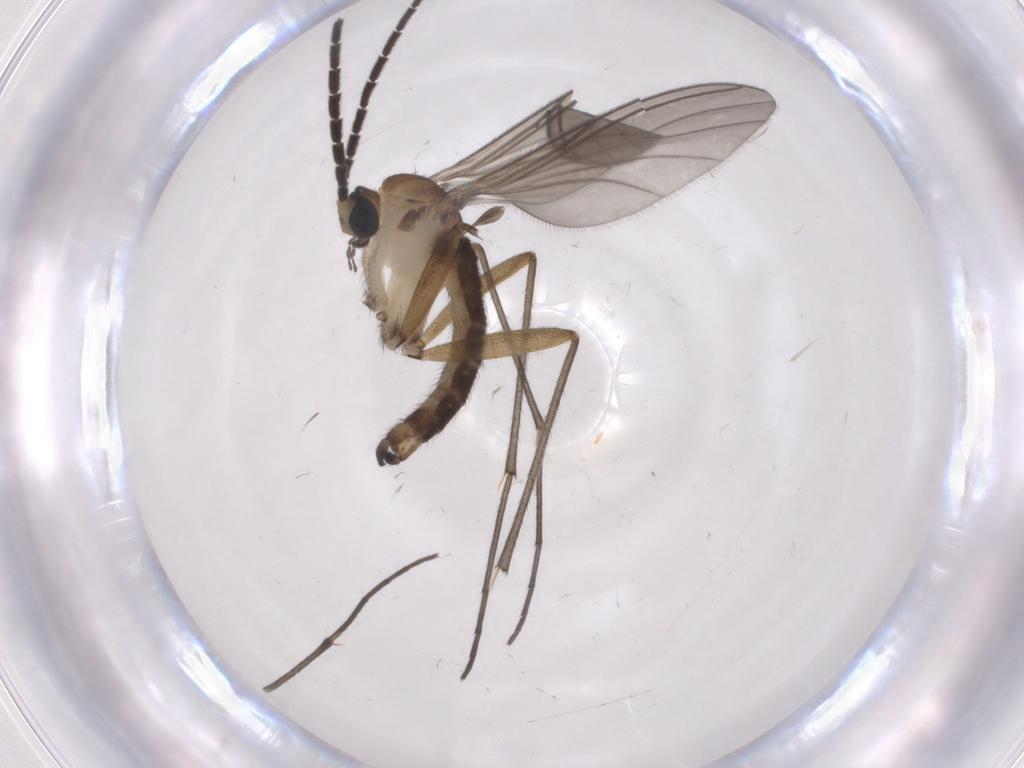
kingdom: Animalia
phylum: Arthropoda
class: Insecta
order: Diptera
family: Sciaridae
